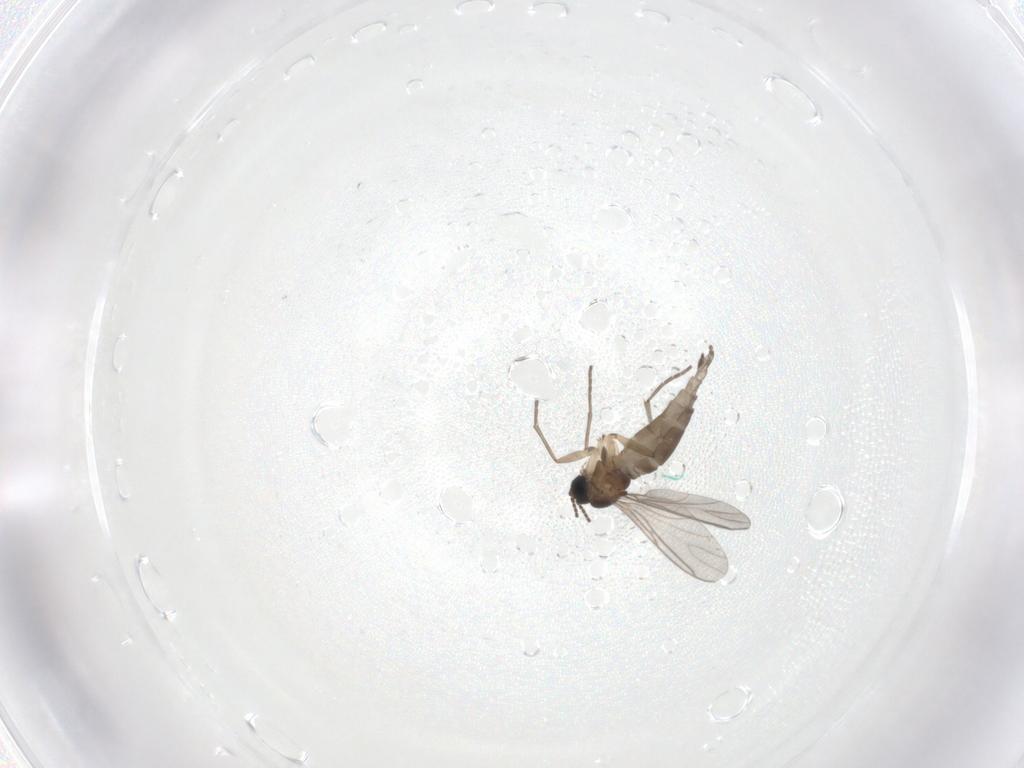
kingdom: Animalia
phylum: Arthropoda
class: Insecta
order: Diptera
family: Sciaridae
